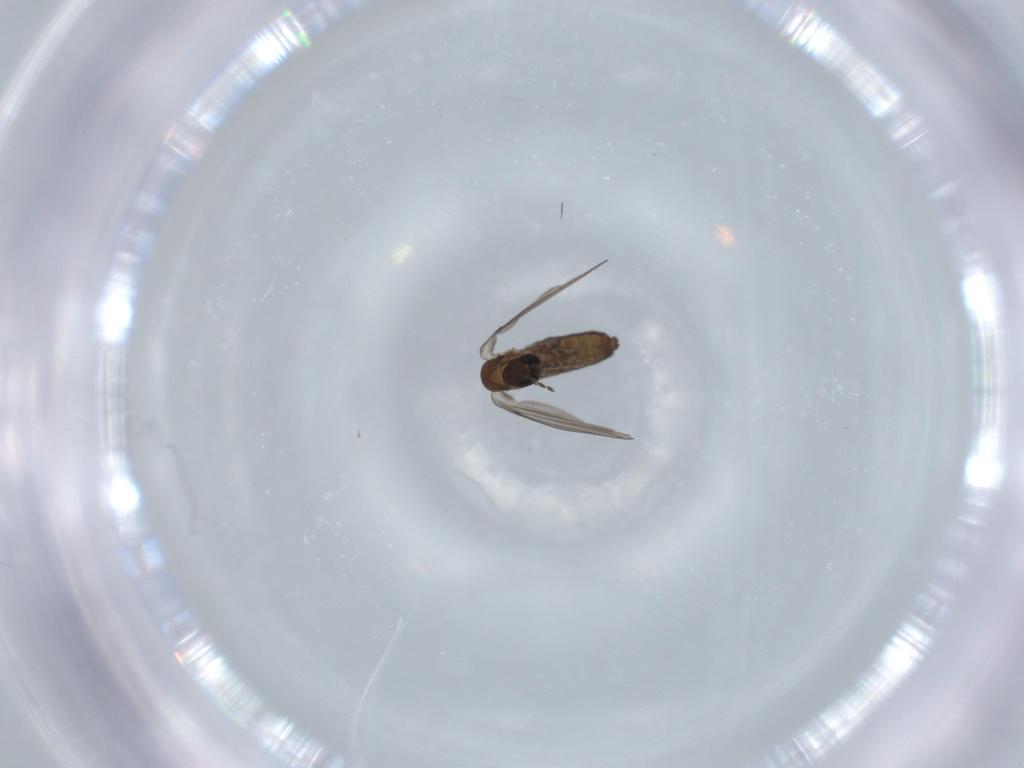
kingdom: Animalia
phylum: Arthropoda
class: Insecta
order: Diptera
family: Psychodidae
